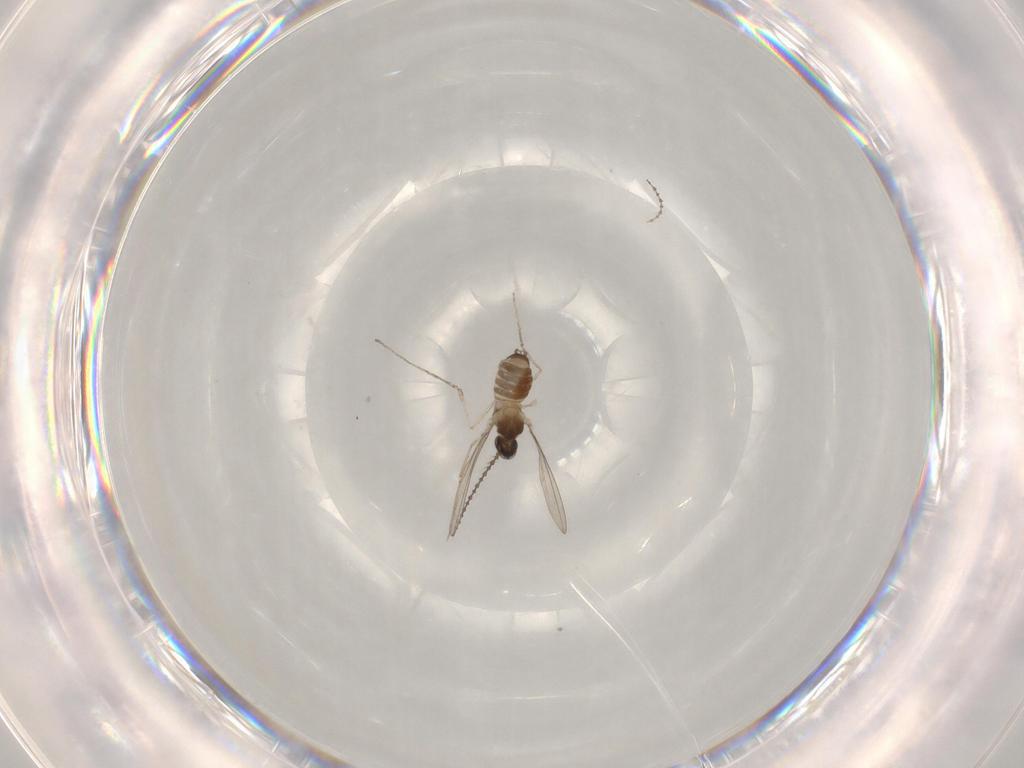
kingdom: Animalia
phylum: Arthropoda
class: Insecta
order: Diptera
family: Cecidomyiidae
